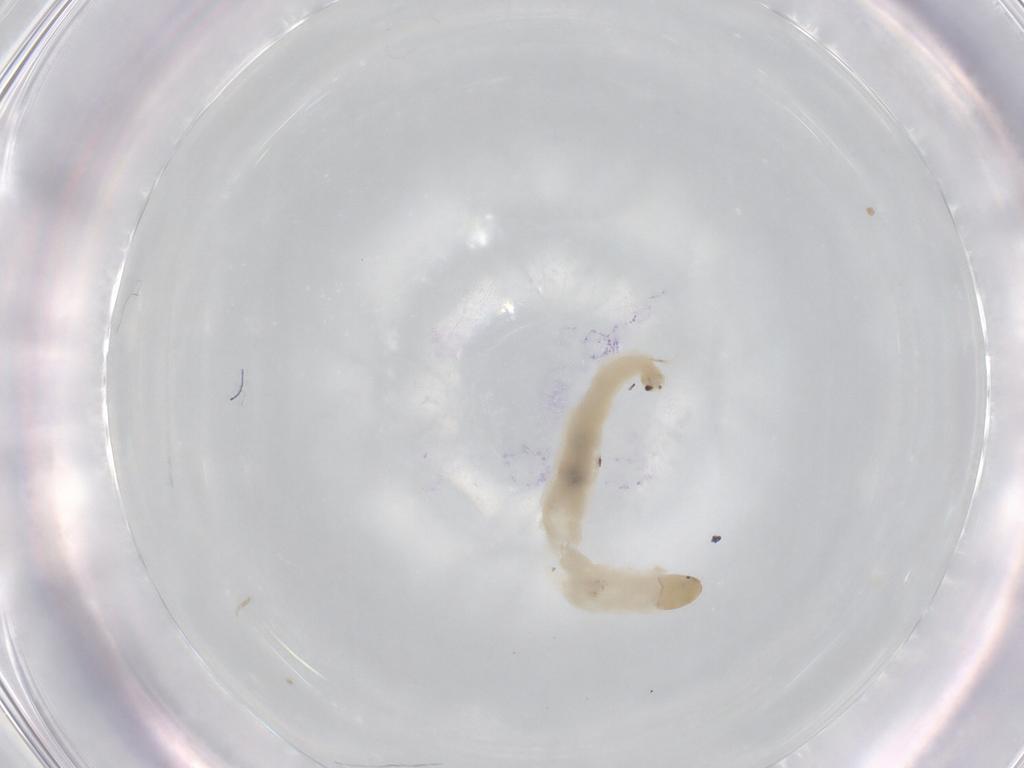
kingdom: Animalia
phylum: Arthropoda
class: Insecta
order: Diptera
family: Chironomidae
